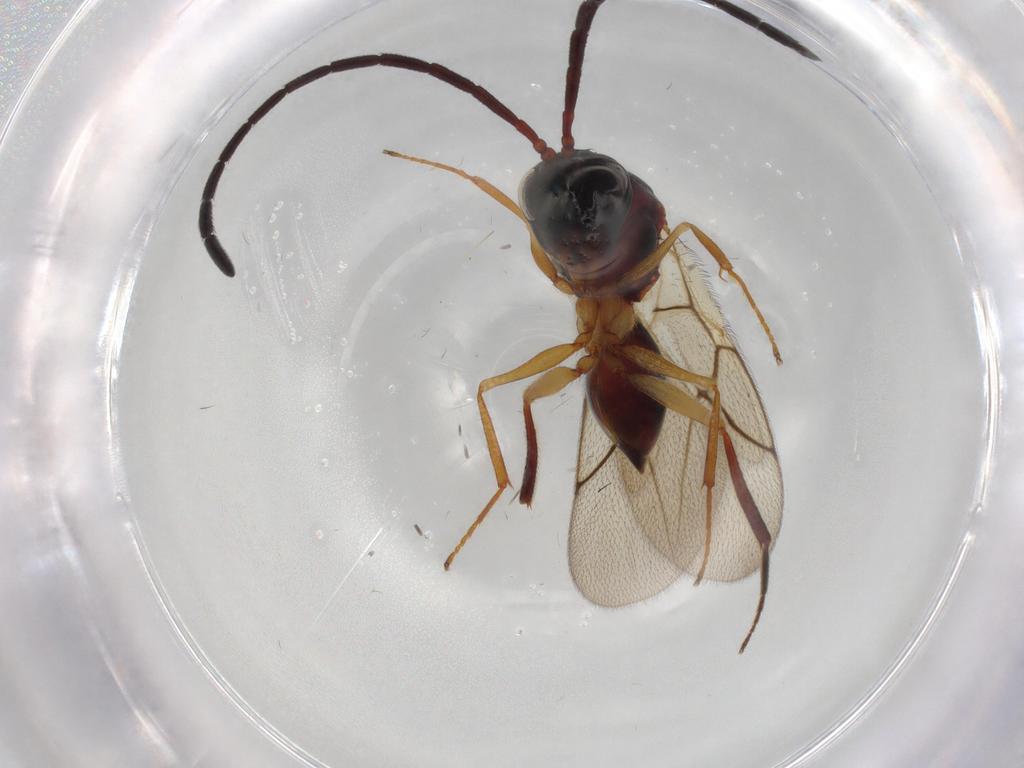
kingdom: Animalia
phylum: Arthropoda
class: Insecta
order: Hymenoptera
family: Figitidae
